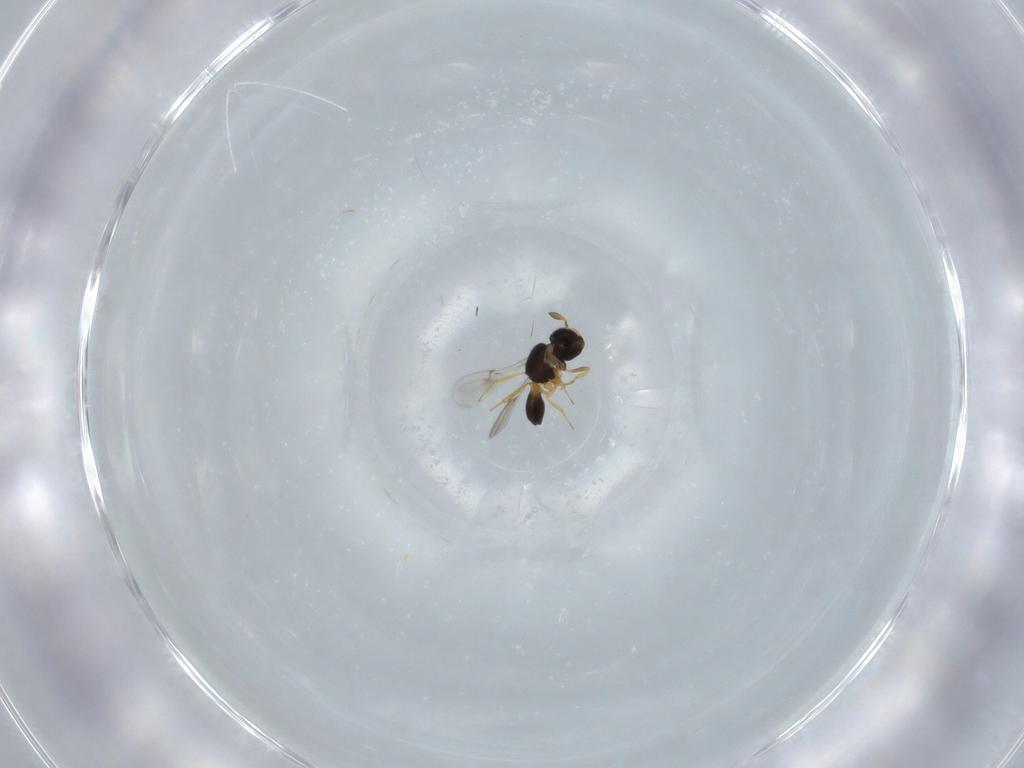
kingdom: Animalia
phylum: Arthropoda
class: Insecta
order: Hymenoptera
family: Scelionidae
